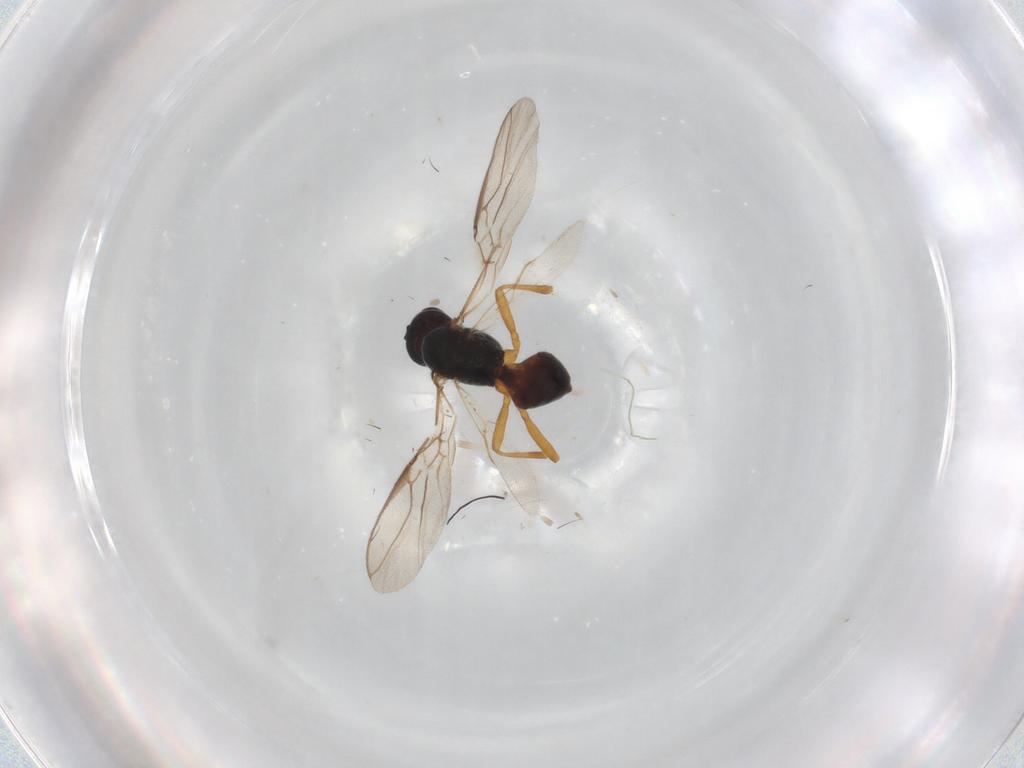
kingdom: Animalia
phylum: Arthropoda
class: Insecta
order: Hymenoptera
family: Braconidae
